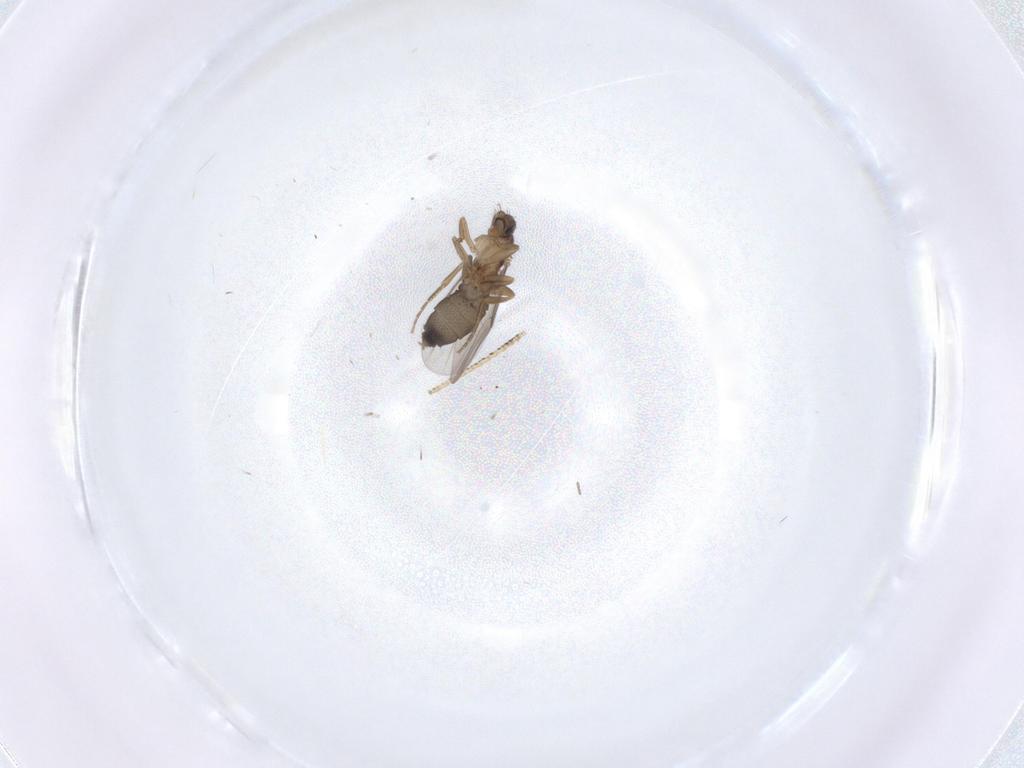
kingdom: Animalia
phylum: Arthropoda
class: Insecta
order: Diptera
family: Phoridae
